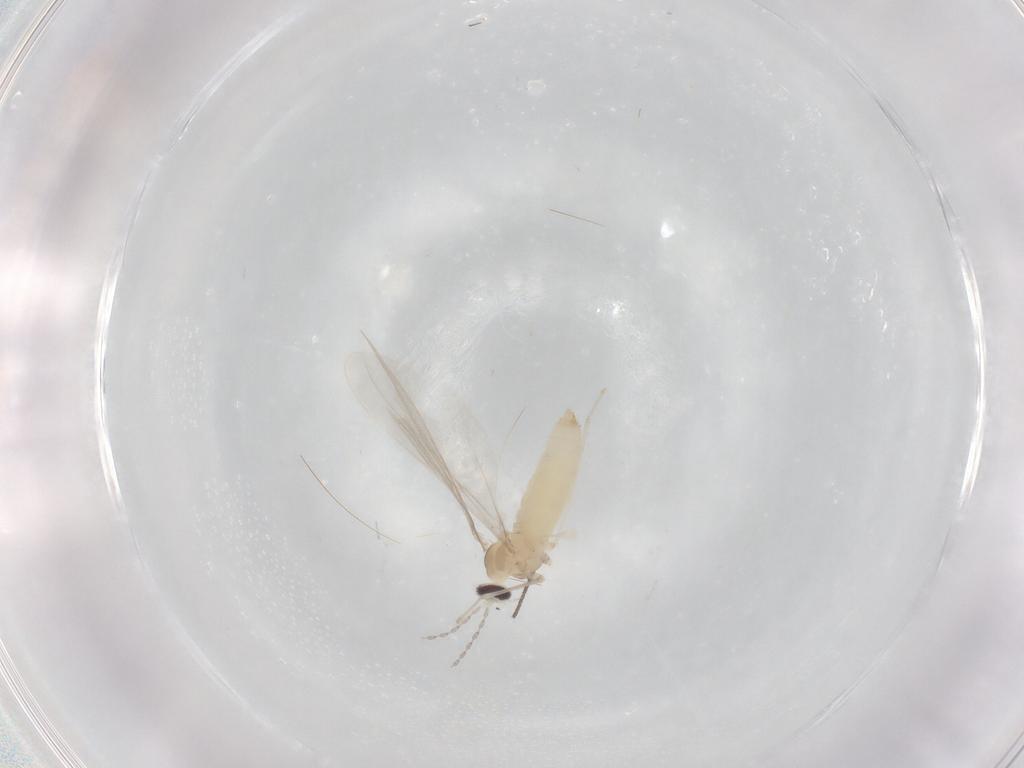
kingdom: Animalia
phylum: Arthropoda
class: Insecta
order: Diptera
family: Cecidomyiidae
